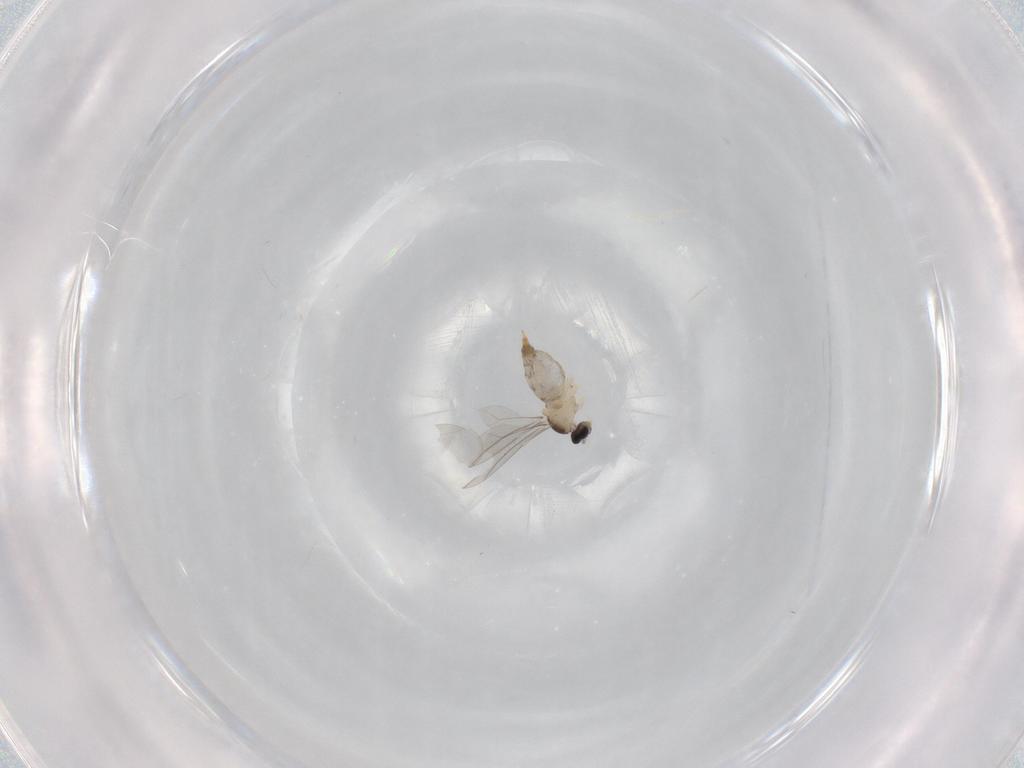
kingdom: Animalia
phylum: Arthropoda
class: Insecta
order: Diptera
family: Cecidomyiidae
